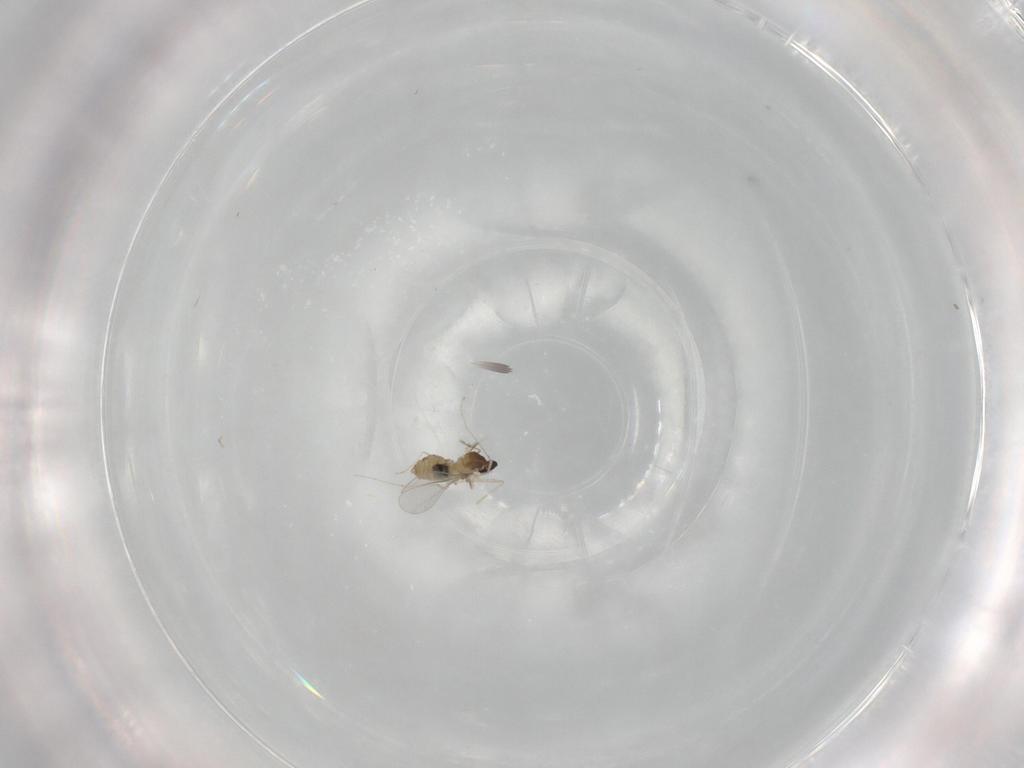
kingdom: Animalia
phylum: Arthropoda
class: Insecta
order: Diptera
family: Cecidomyiidae
